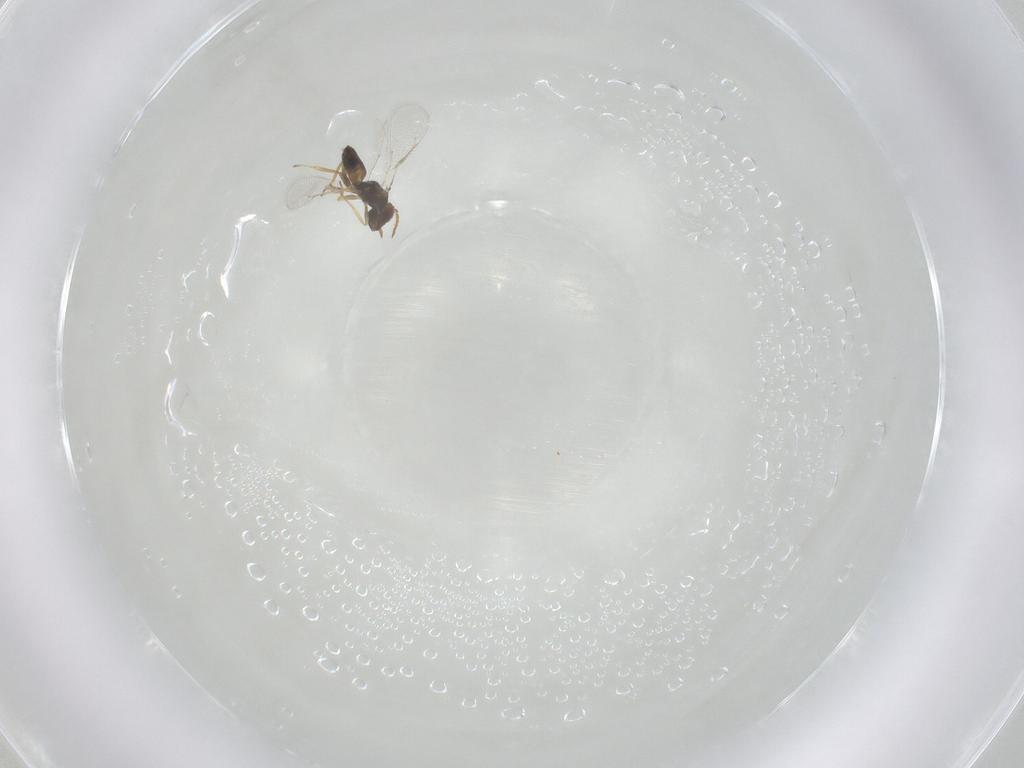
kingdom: Animalia
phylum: Arthropoda
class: Insecta
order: Hymenoptera
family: Eulophidae
